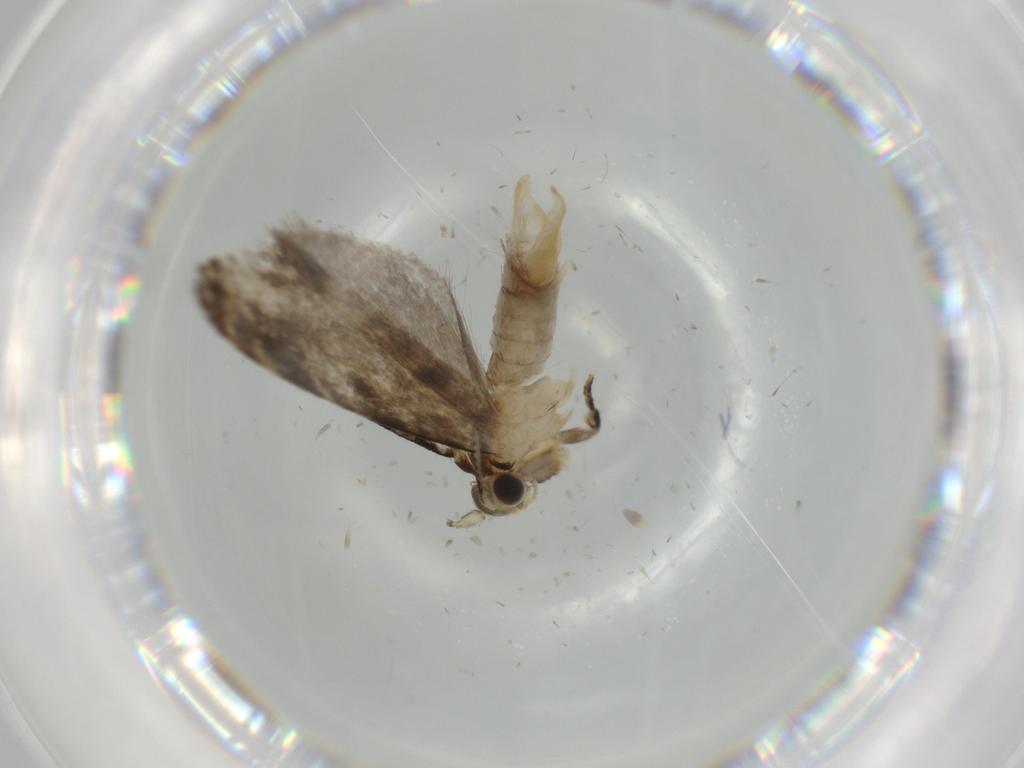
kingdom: Animalia
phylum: Arthropoda
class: Insecta
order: Lepidoptera
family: Tineidae
